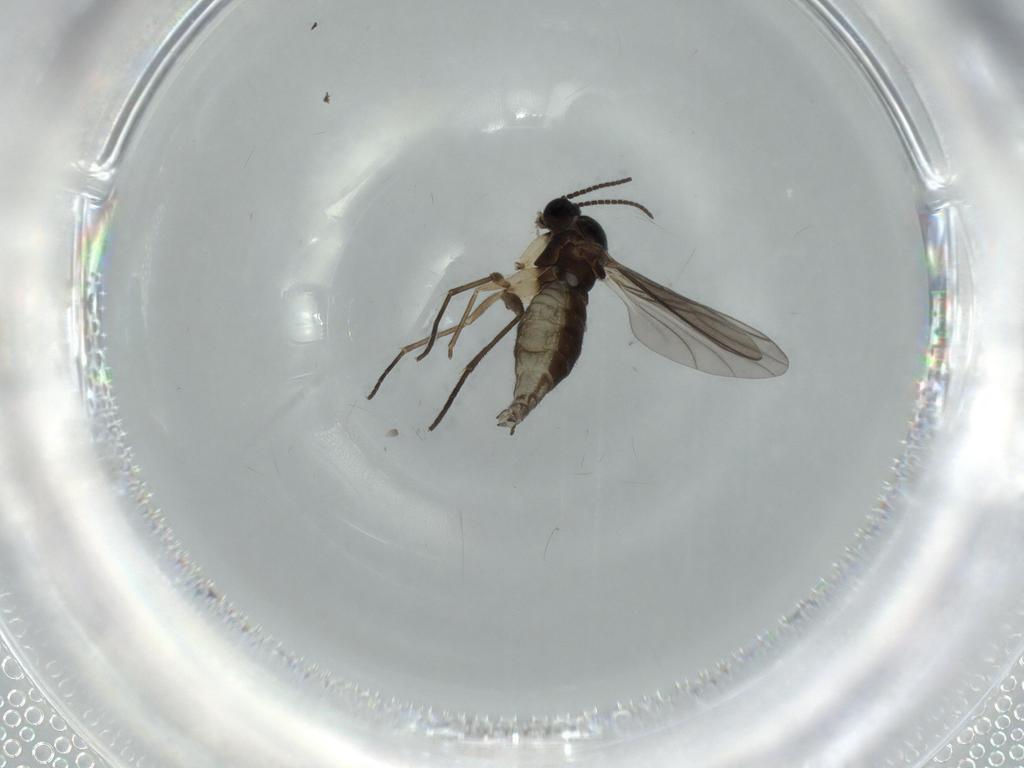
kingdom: Animalia
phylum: Arthropoda
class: Insecta
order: Diptera
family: Sciaridae
